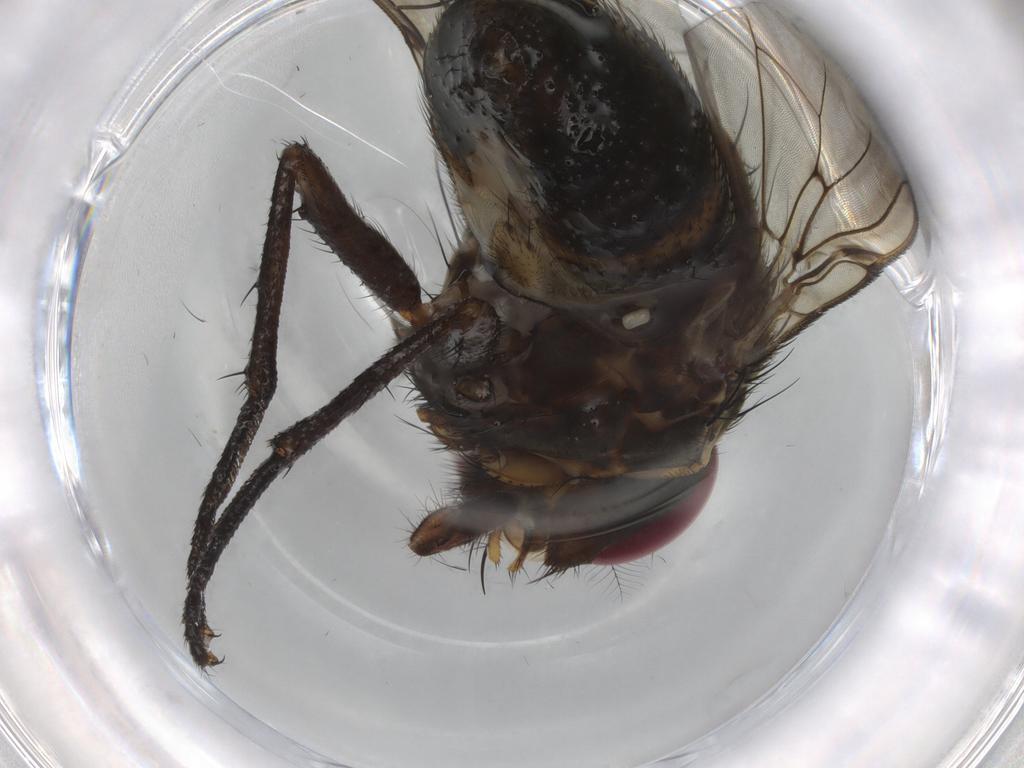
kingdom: Animalia
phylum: Arthropoda
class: Insecta
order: Diptera
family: Muscidae
